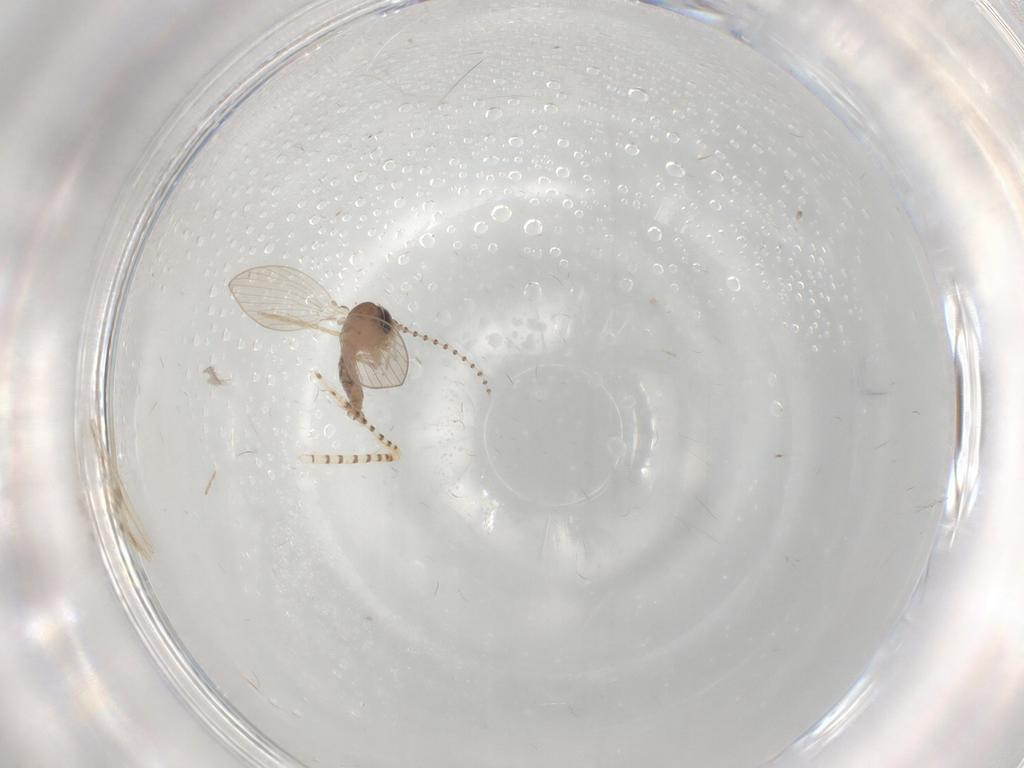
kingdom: Animalia
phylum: Arthropoda
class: Insecta
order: Diptera
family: Psychodidae
